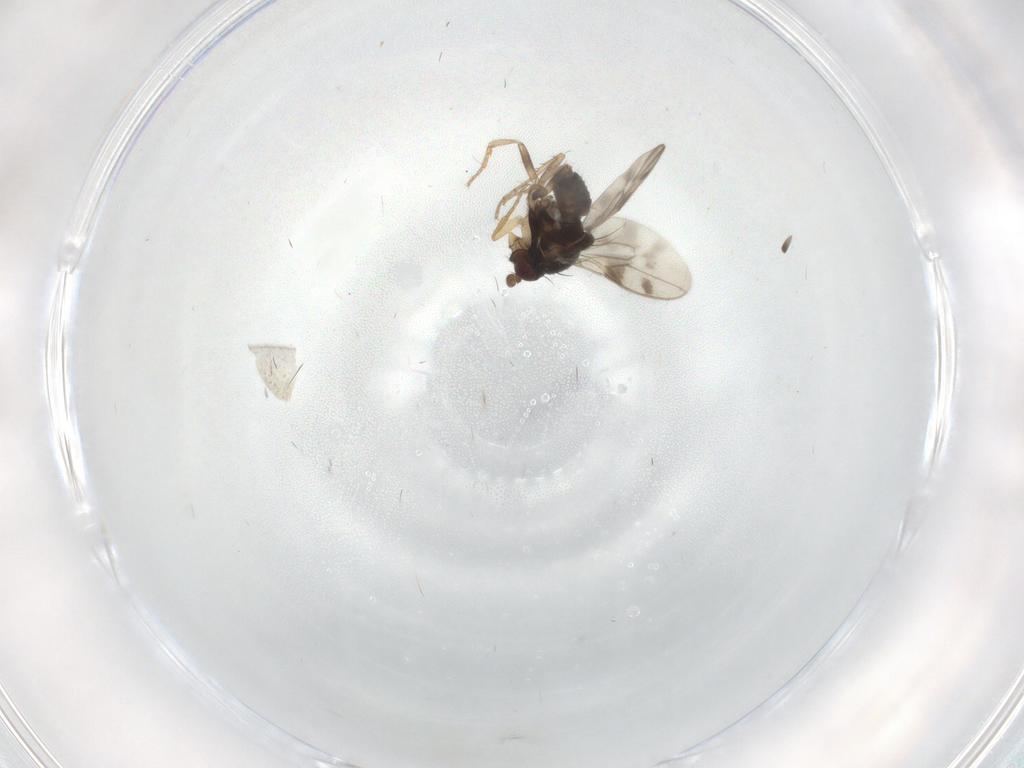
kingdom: Animalia
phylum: Arthropoda
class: Insecta
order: Diptera
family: Sphaeroceridae
